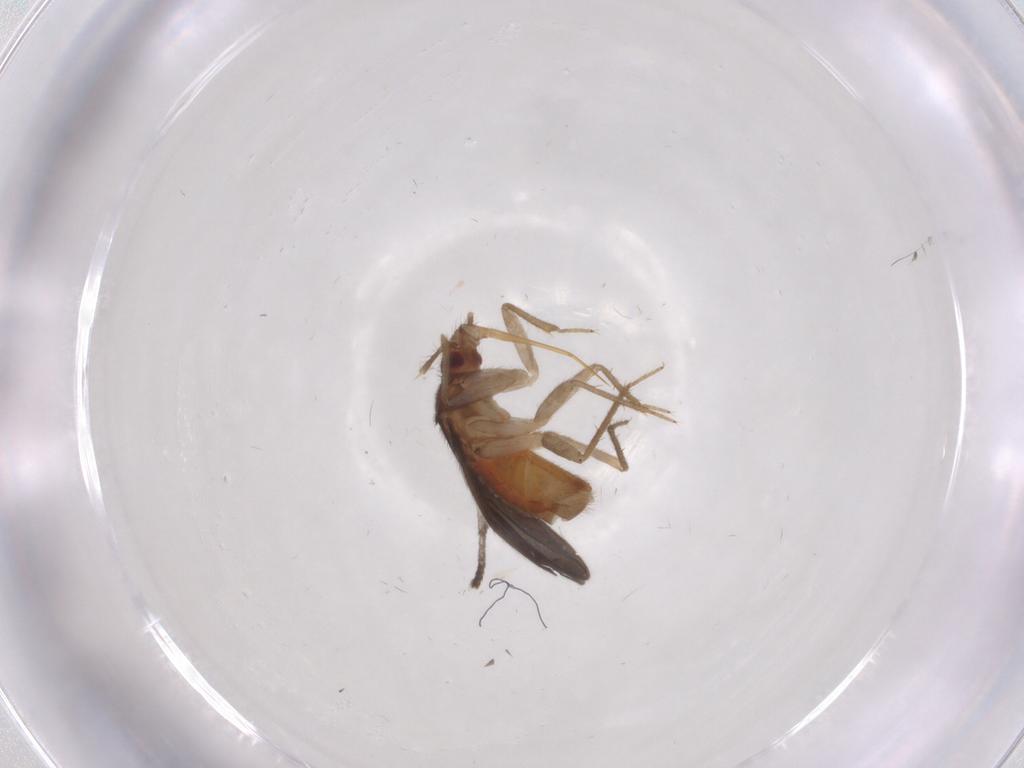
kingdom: Animalia
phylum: Arthropoda
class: Insecta
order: Hemiptera
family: Ceratocombidae
